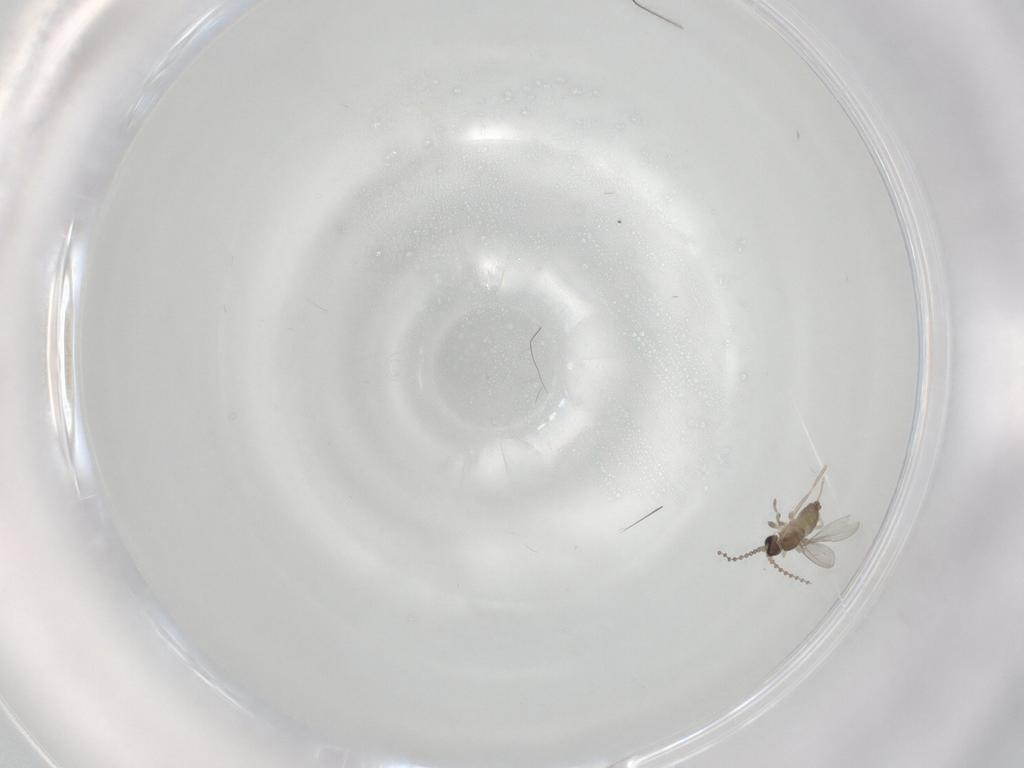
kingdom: Animalia
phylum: Arthropoda
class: Insecta
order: Diptera
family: Cecidomyiidae
